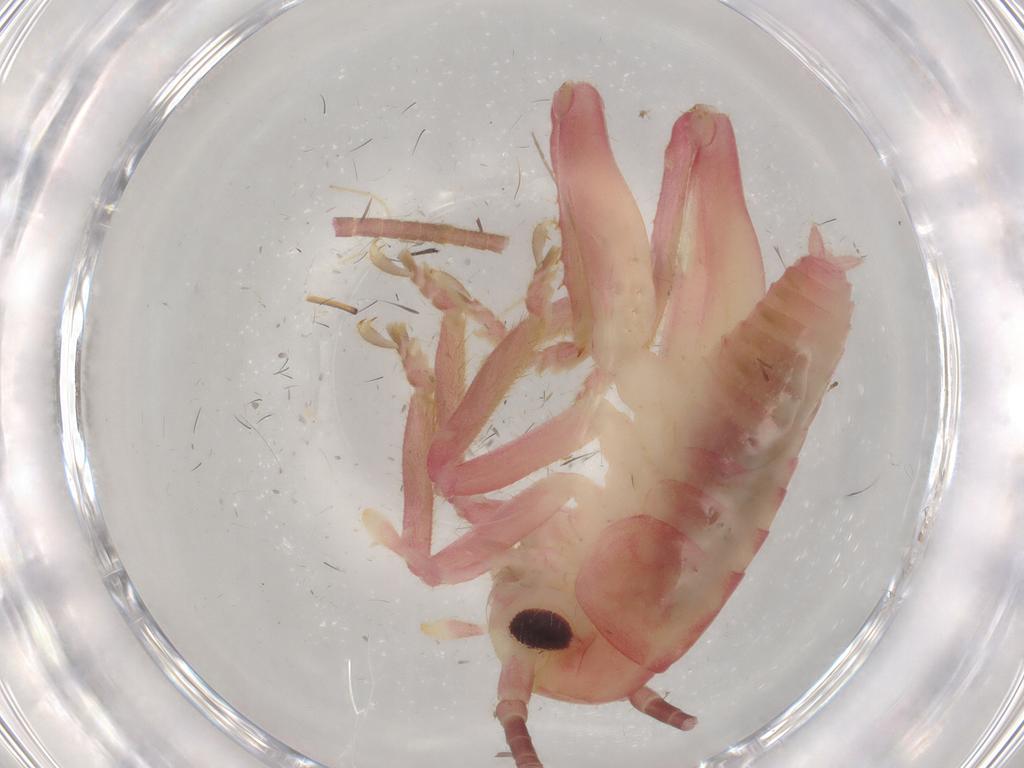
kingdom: Animalia
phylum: Arthropoda
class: Insecta
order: Orthoptera
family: Gryllacrididae
